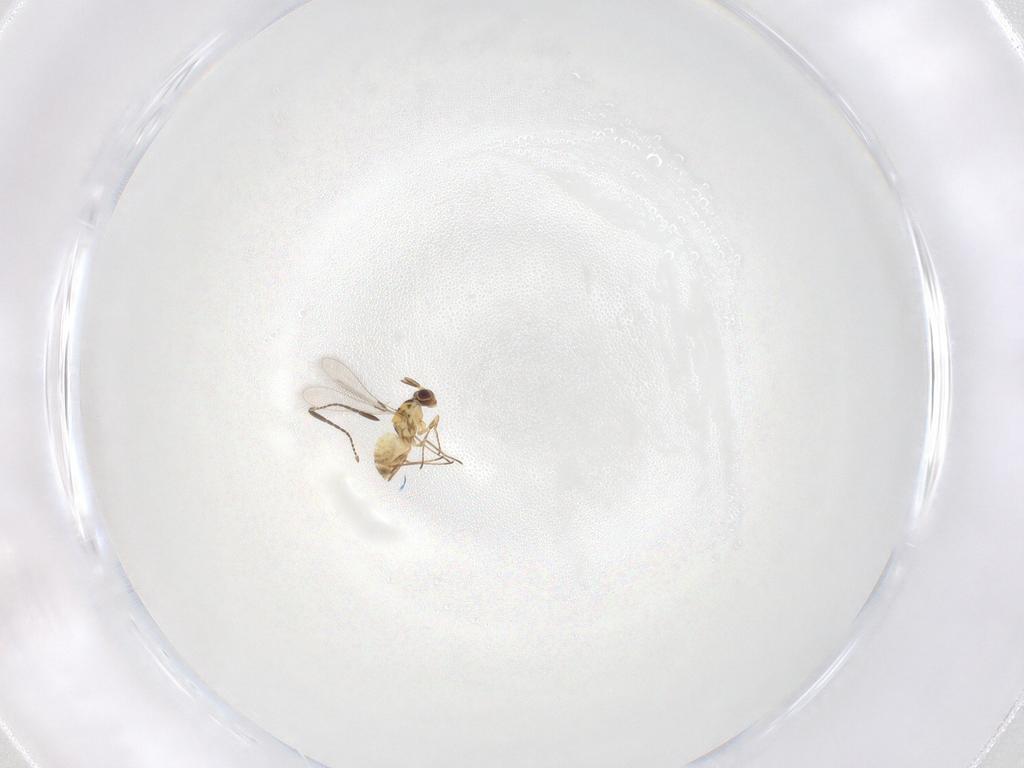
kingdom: Animalia
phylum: Arthropoda
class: Insecta
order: Hymenoptera
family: Mymaridae
